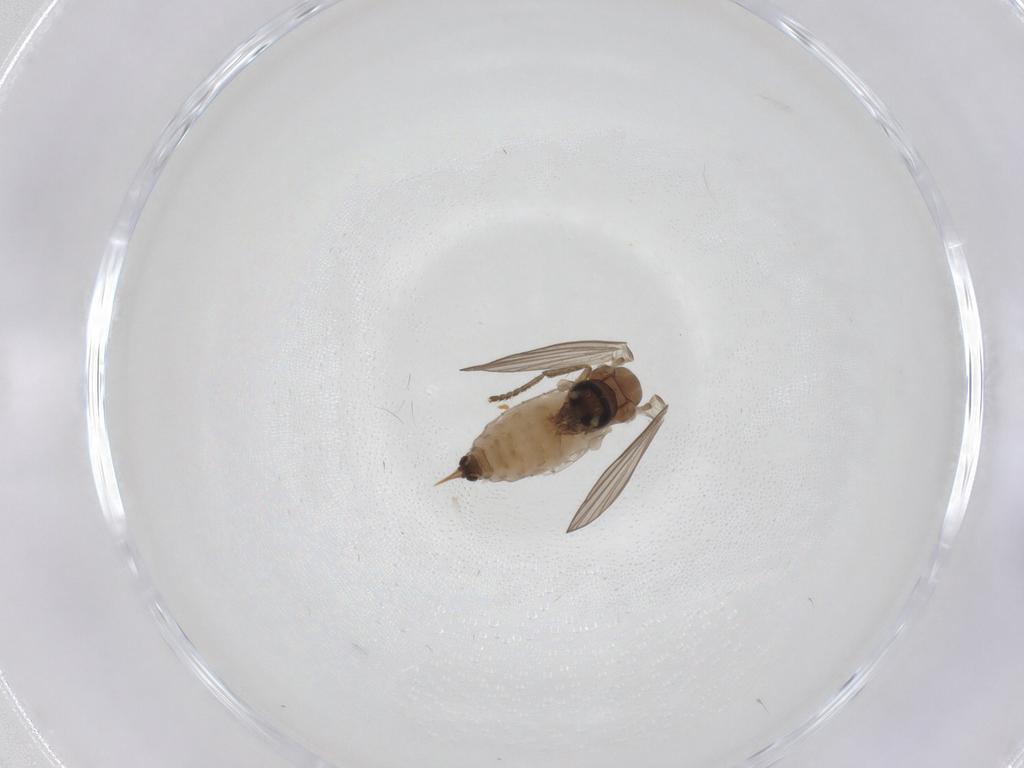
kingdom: Animalia
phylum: Arthropoda
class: Insecta
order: Diptera
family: Psychodidae
